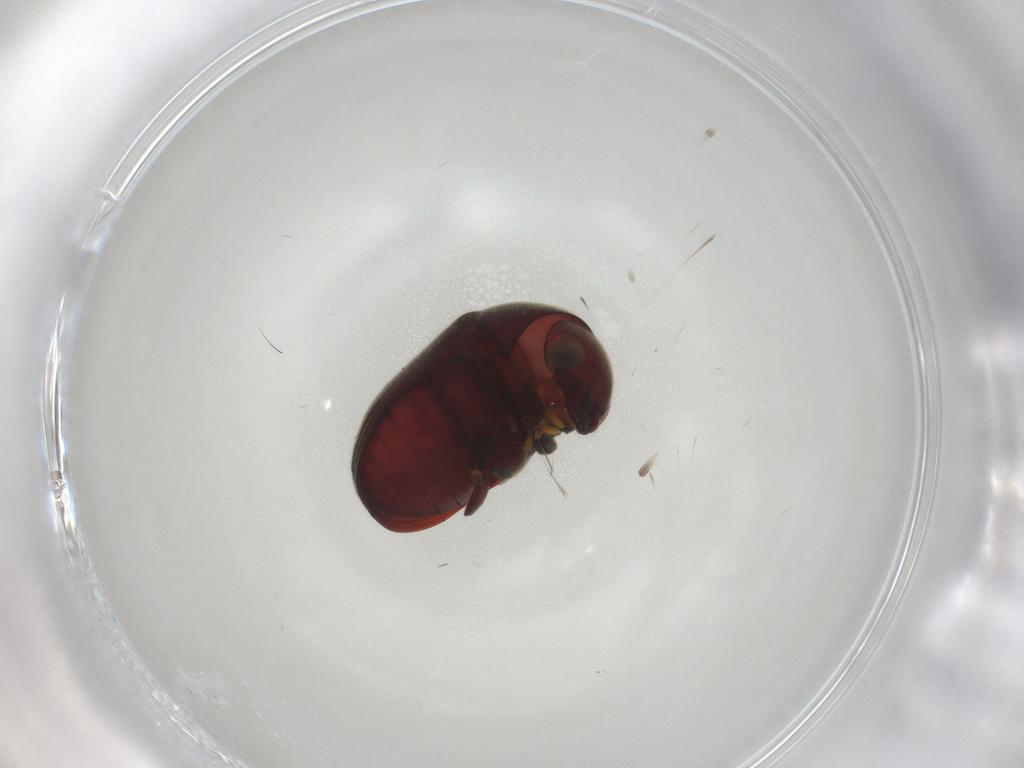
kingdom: Animalia
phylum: Arthropoda
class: Insecta
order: Coleoptera
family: Ptinidae
